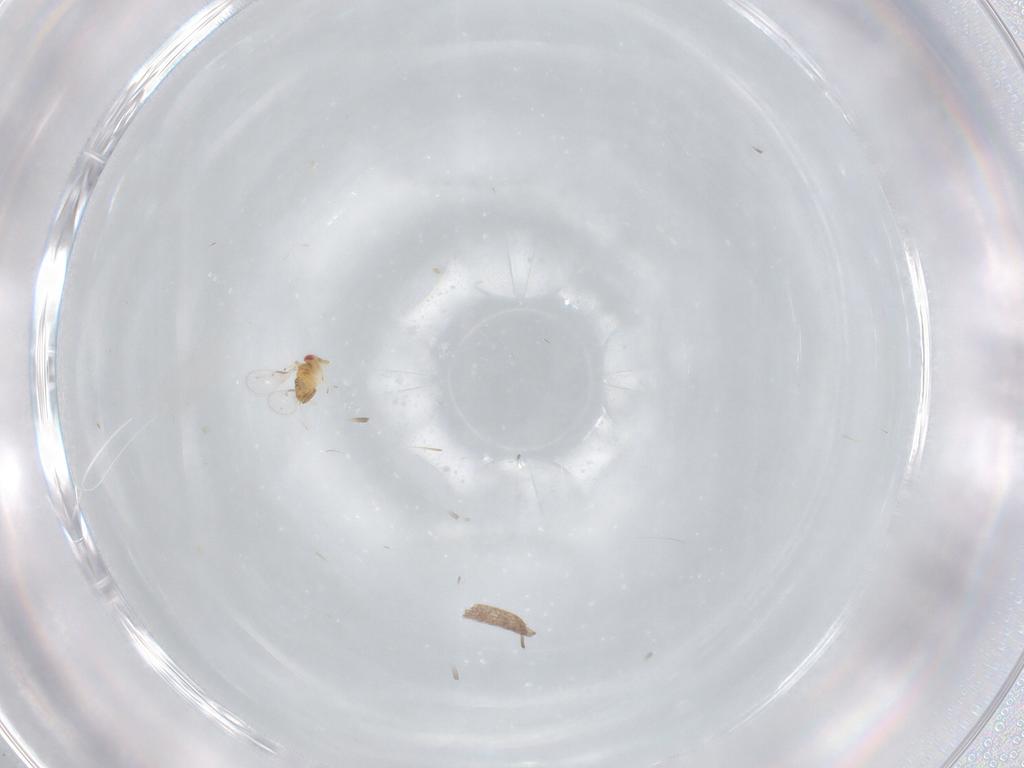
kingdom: Animalia
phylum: Arthropoda
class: Insecta
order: Hymenoptera
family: Trichogrammatidae
